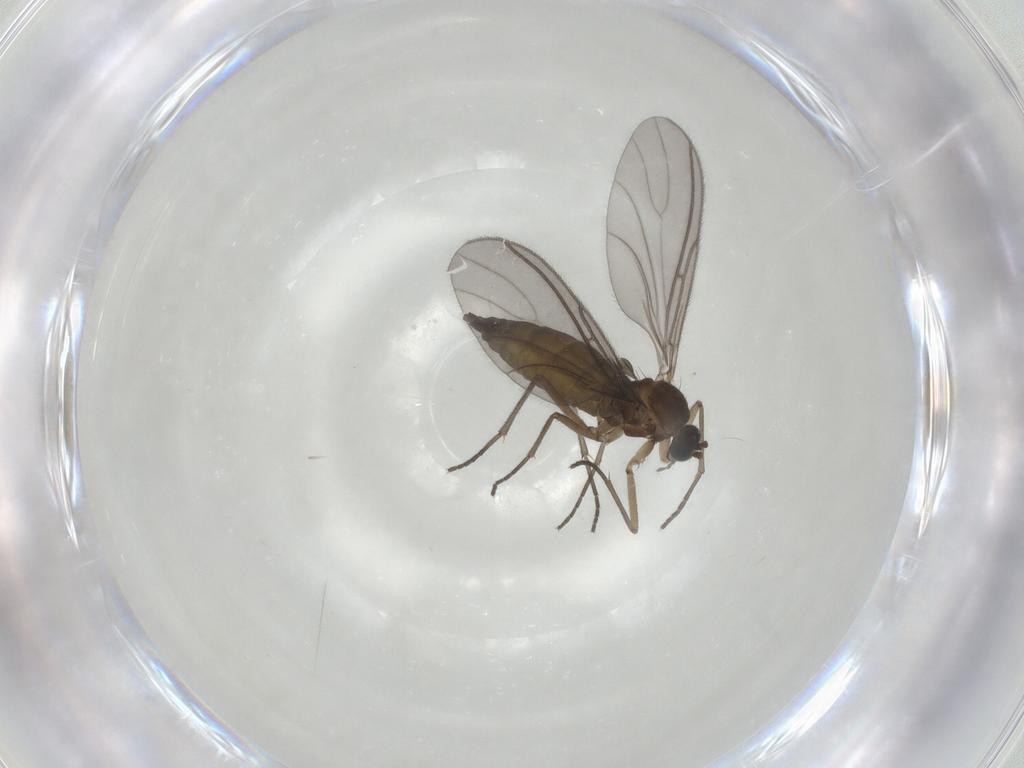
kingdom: Animalia
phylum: Arthropoda
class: Insecta
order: Diptera
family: Sciaridae
